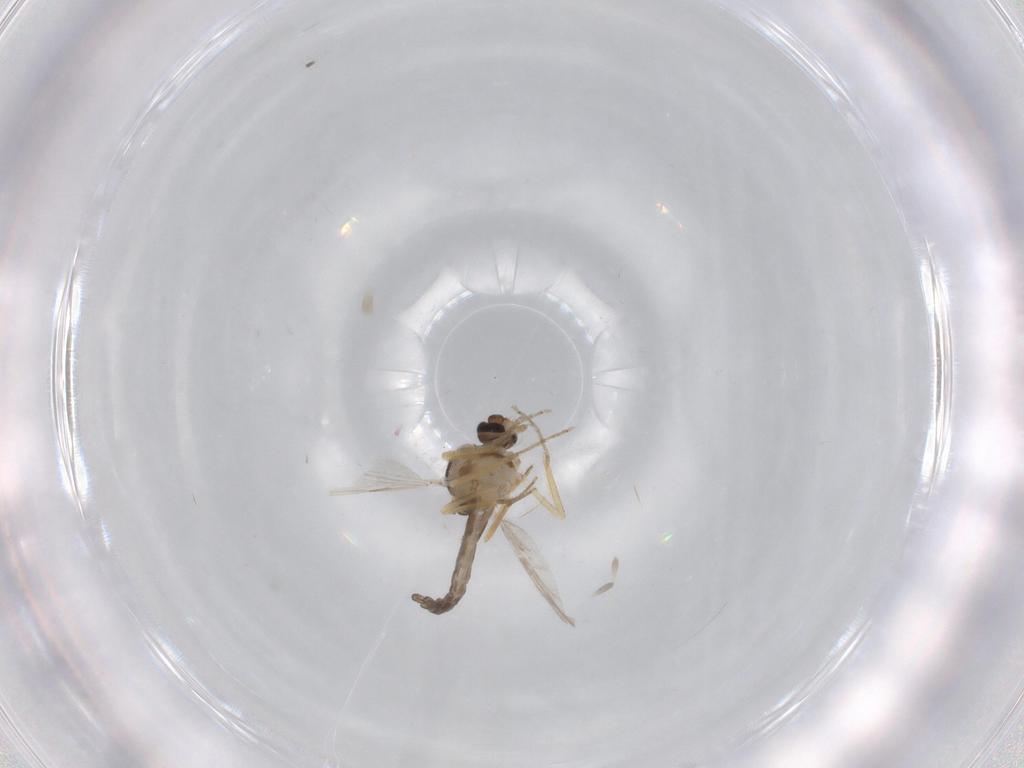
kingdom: Animalia
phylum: Arthropoda
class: Insecta
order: Diptera
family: Ceratopogonidae
